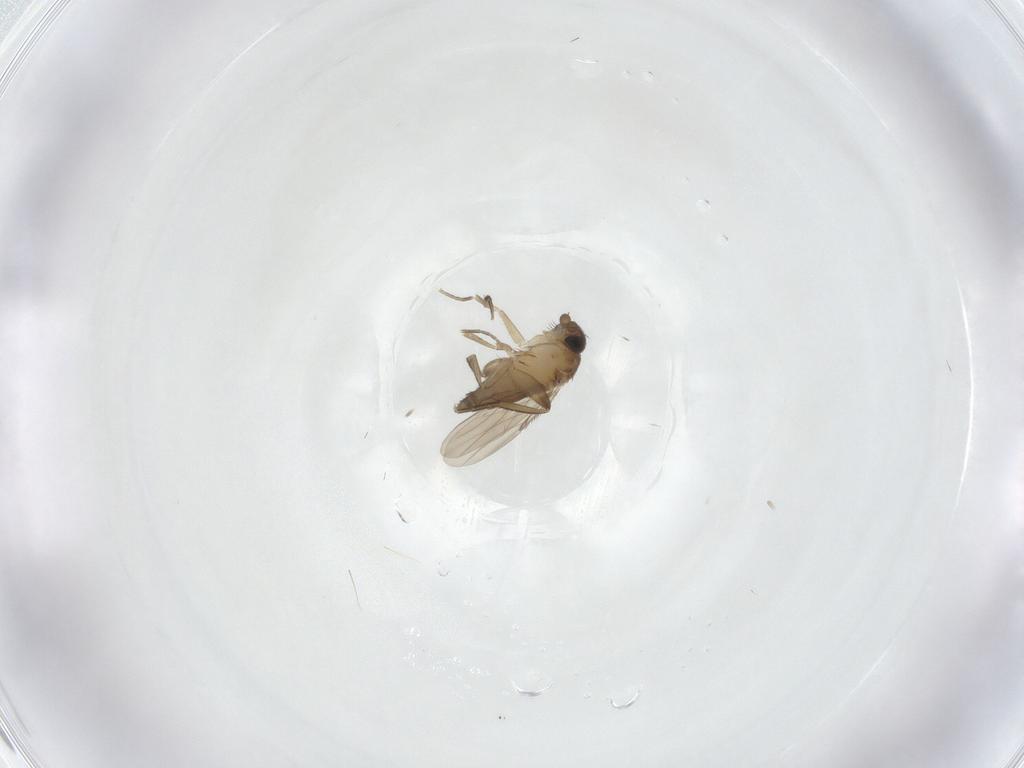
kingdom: Animalia
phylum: Arthropoda
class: Insecta
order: Diptera
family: Phoridae
